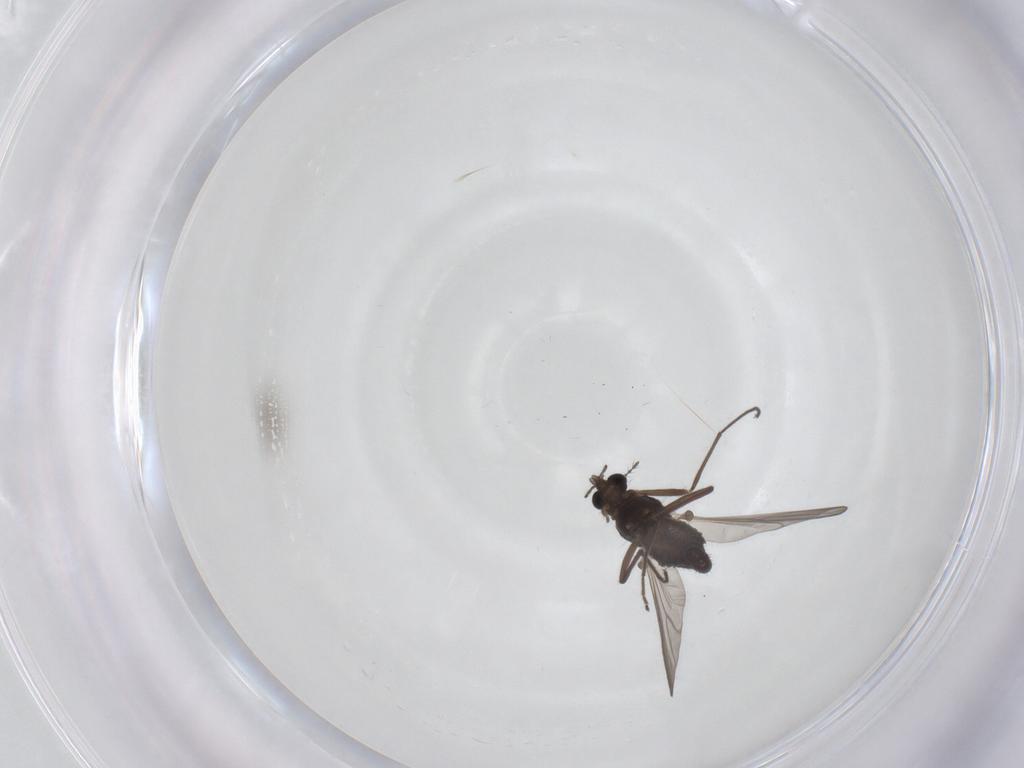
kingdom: Animalia
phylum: Arthropoda
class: Insecta
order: Diptera
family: Chironomidae
